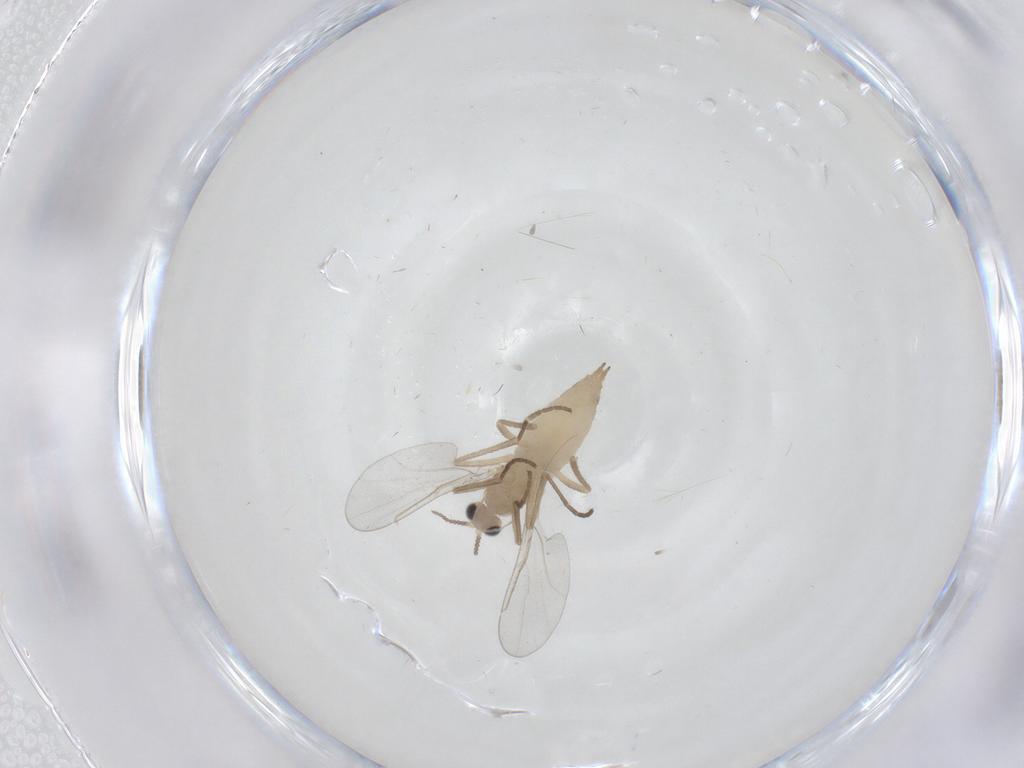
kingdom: Animalia
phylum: Arthropoda
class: Insecta
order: Diptera
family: Cecidomyiidae
